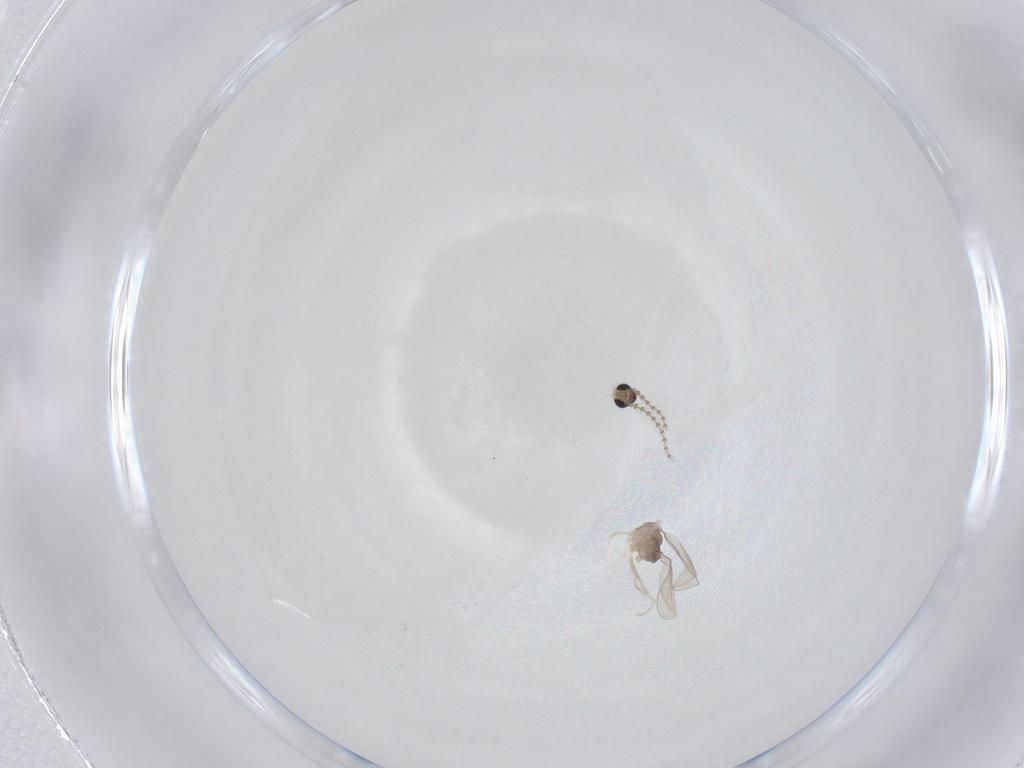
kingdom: Animalia
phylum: Arthropoda
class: Insecta
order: Diptera
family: Cecidomyiidae
